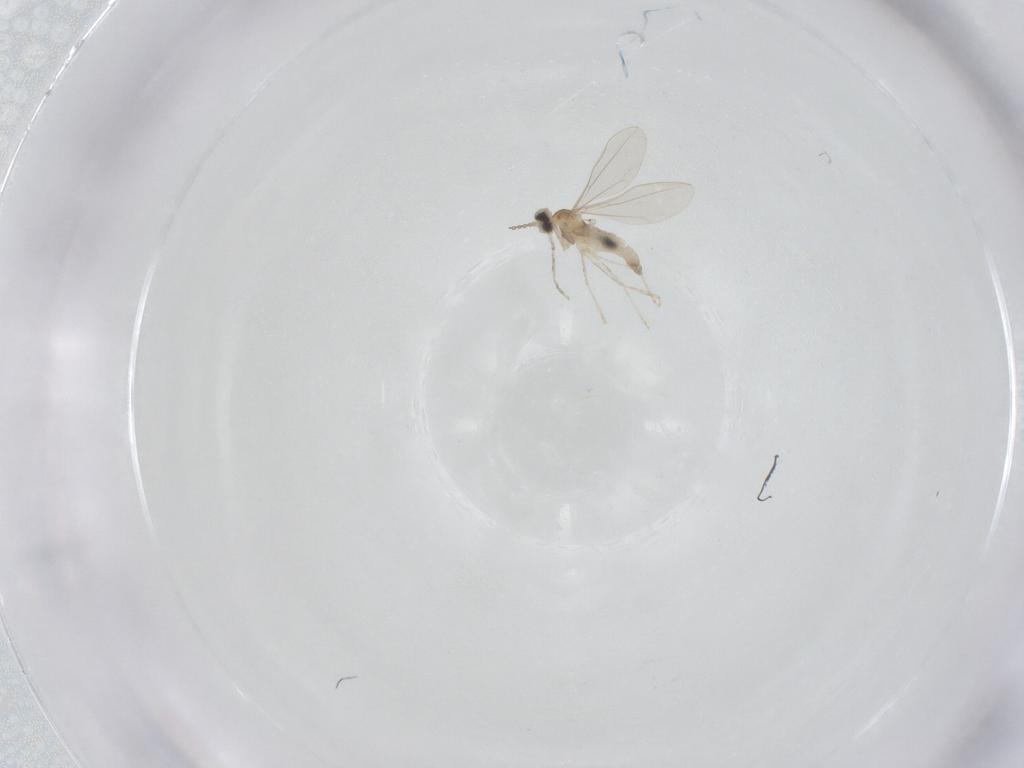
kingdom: Animalia
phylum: Arthropoda
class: Insecta
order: Diptera
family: Cecidomyiidae
